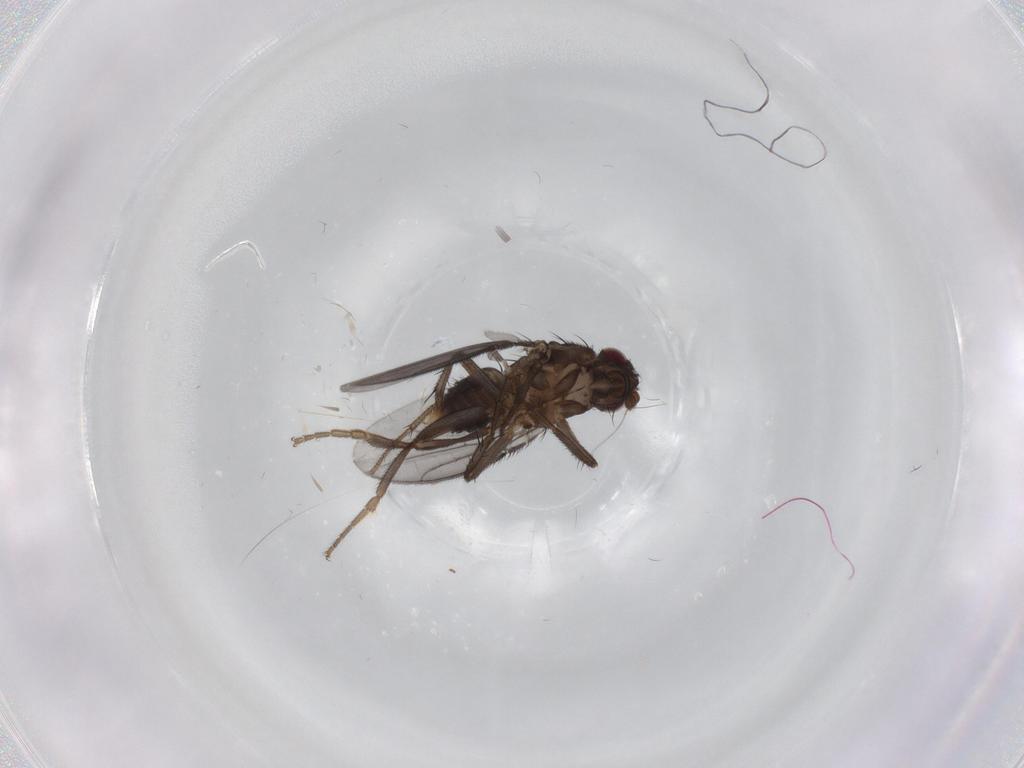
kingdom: Animalia
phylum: Arthropoda
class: Insecta
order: Diptera
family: Sphaeroceridae
